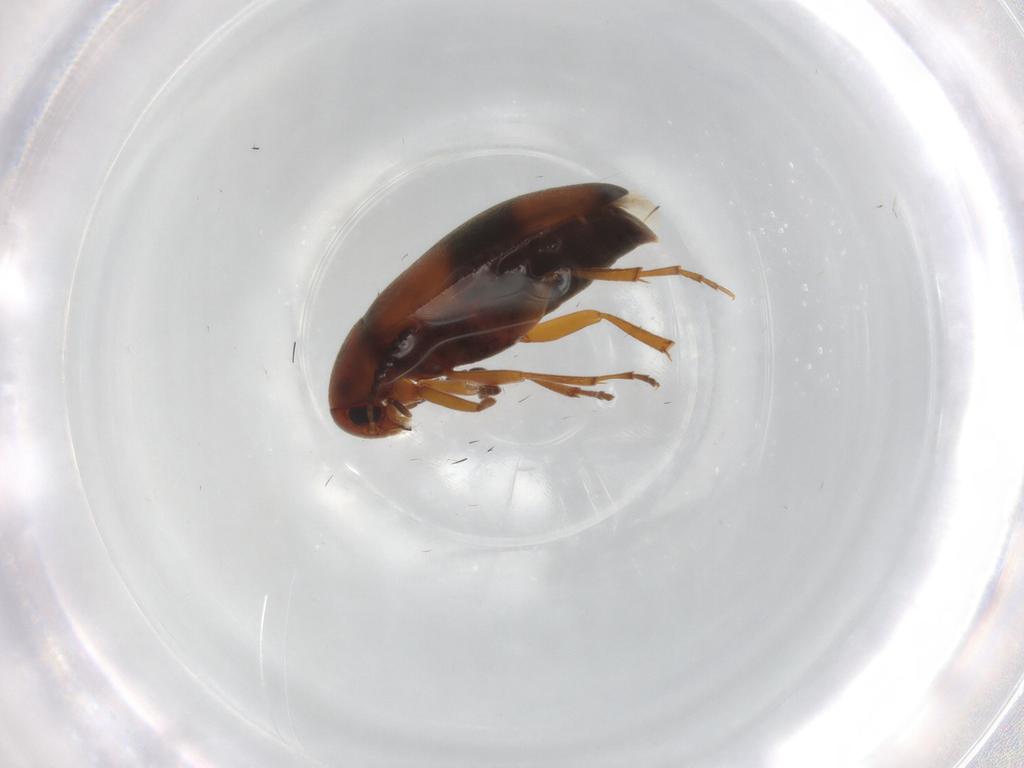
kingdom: Animalia
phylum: Arthropoda
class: Insecta
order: Coleoptera
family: Scraptiidae
